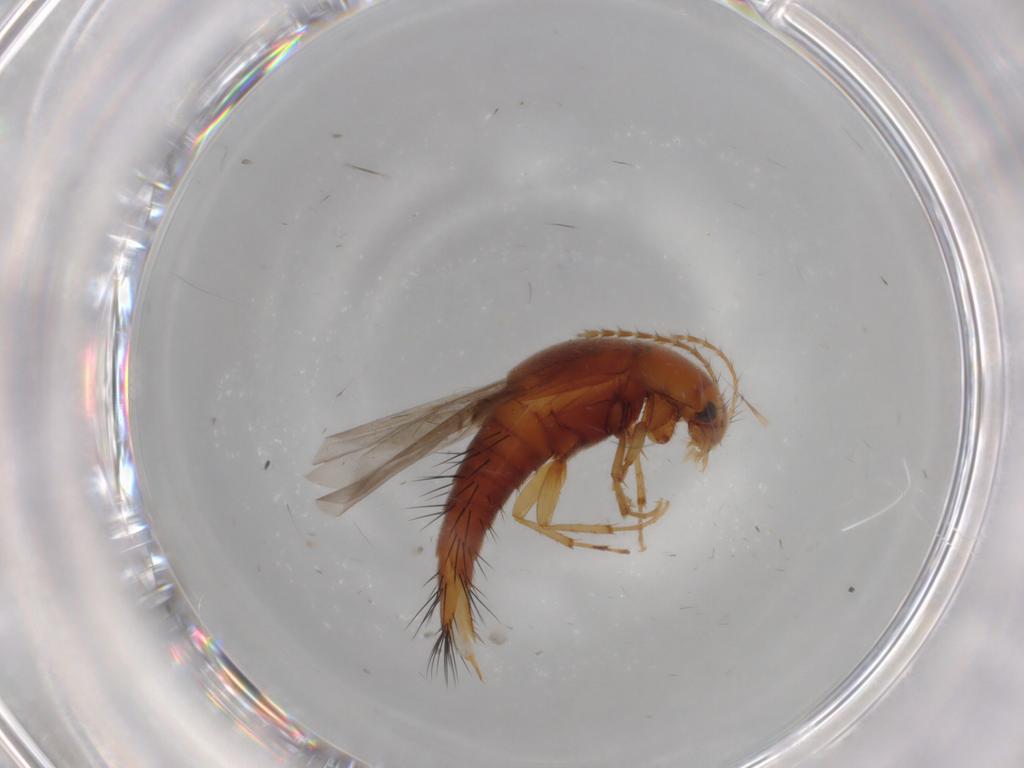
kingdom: Animalia
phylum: Arthropoda
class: Insecta
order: Coleoptera
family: Staphylinidae
